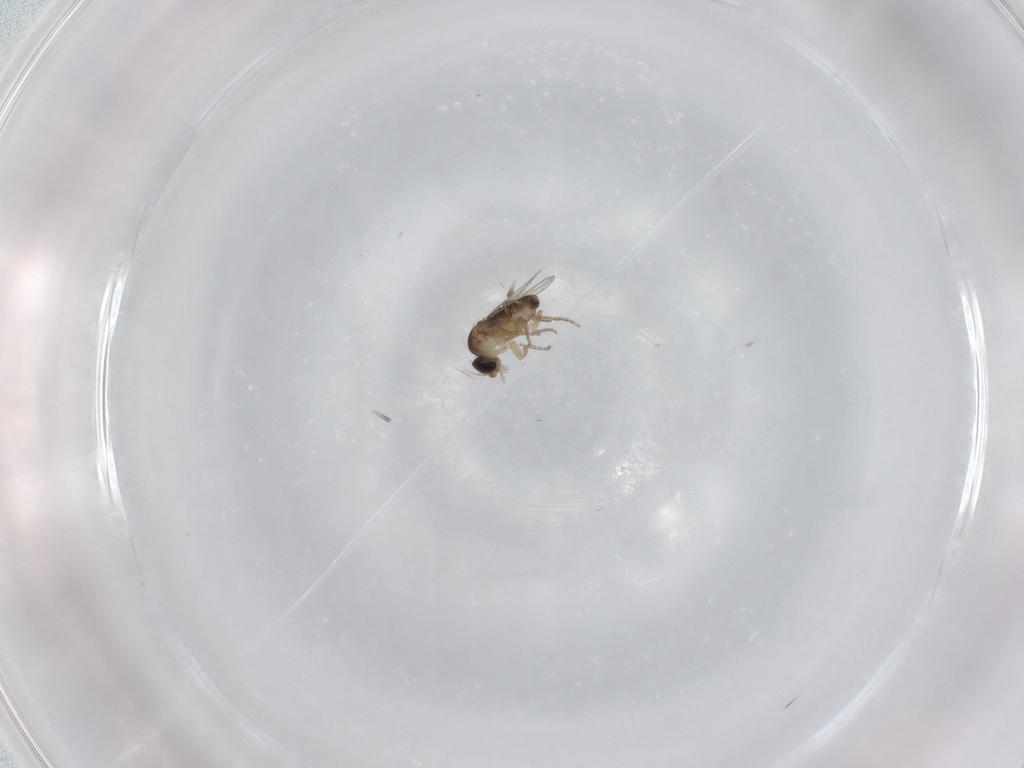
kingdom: Animalia
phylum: Arthropoda
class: Insecta
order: Diptera
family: Phoridae
